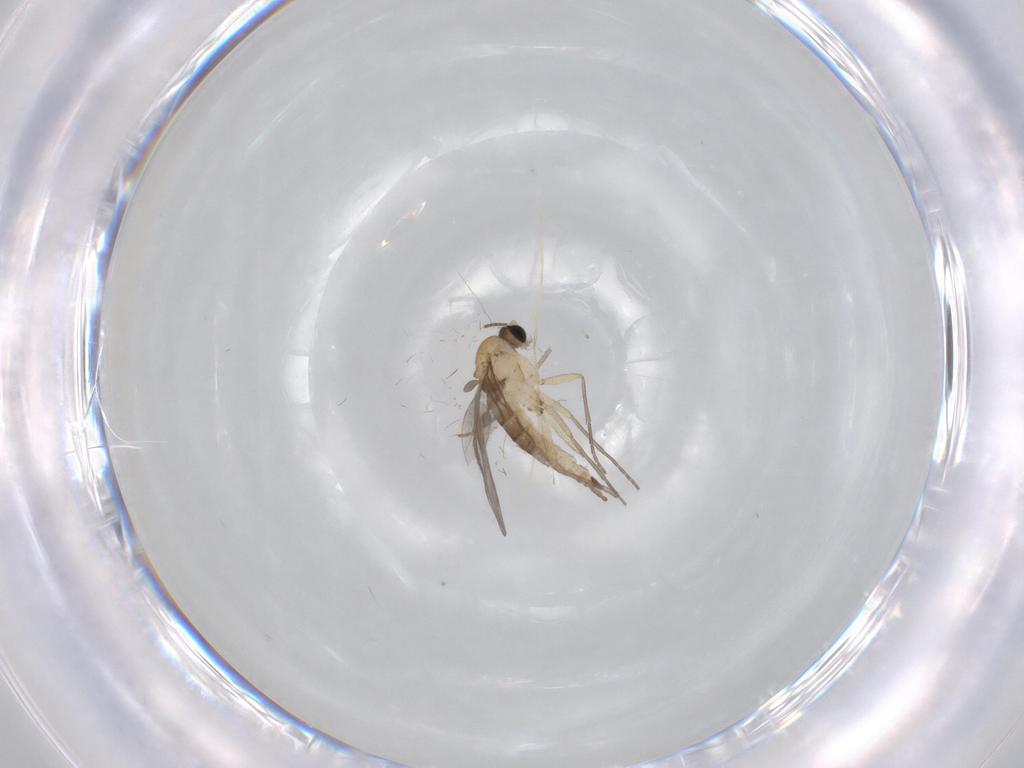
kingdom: Animalia
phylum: Arthropoda
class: Insecta
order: Diptera
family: Sciaridae
